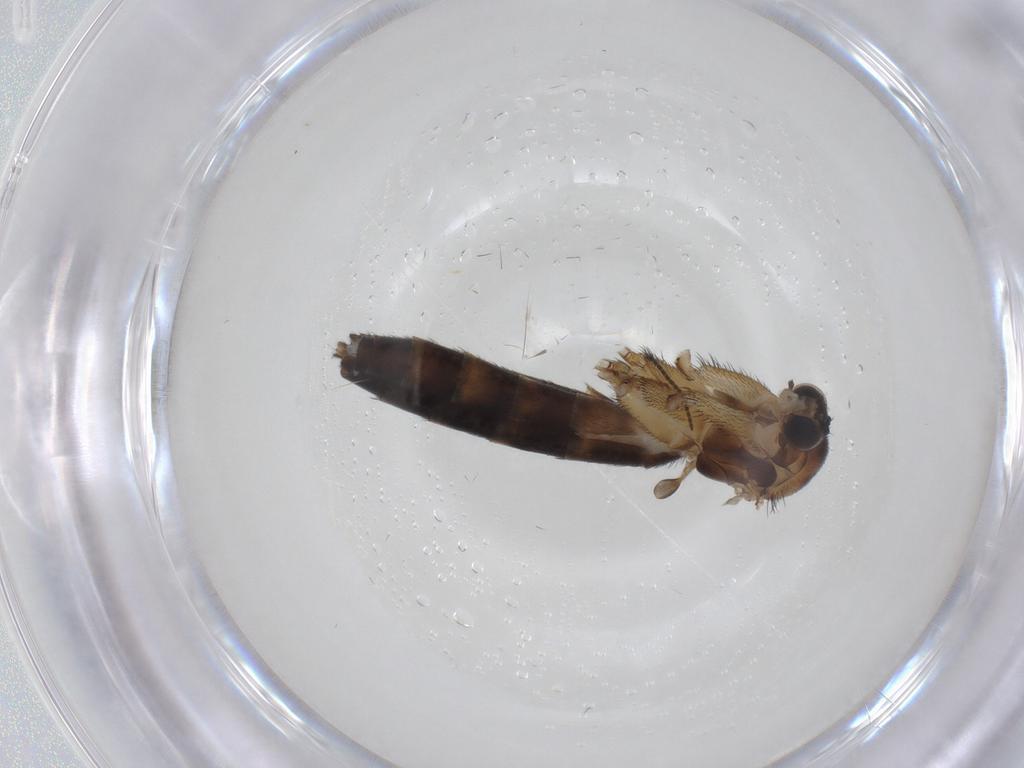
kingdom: Animalia
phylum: Arthropoda
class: Insecta
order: Diptera
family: Keroplatidae
